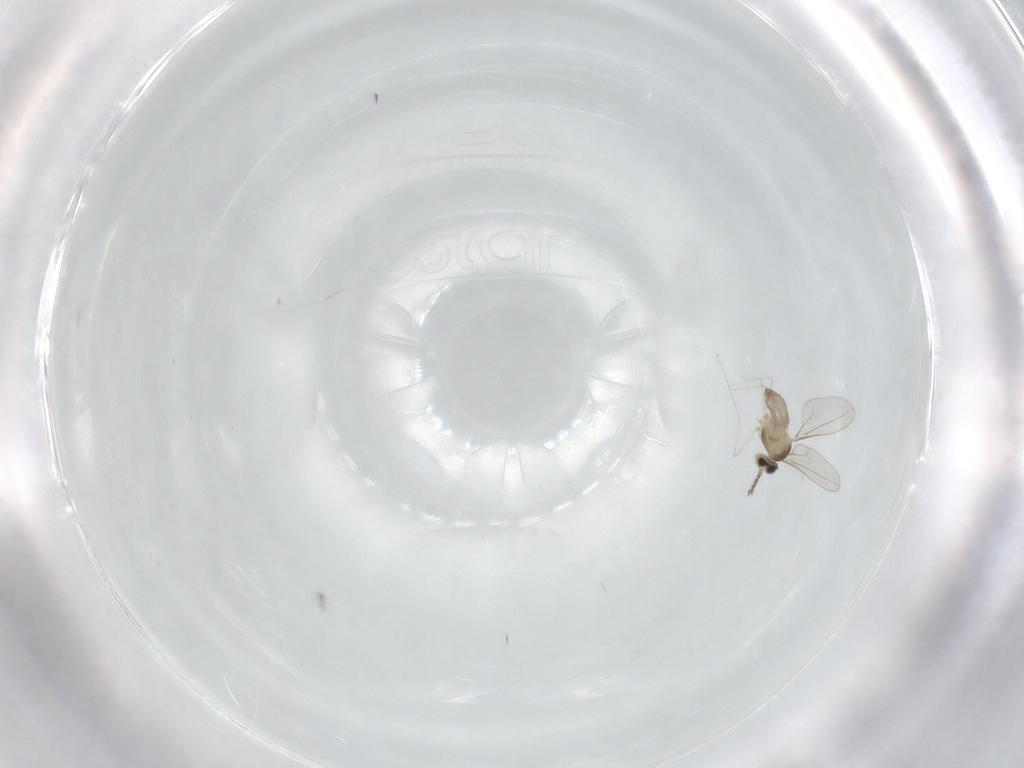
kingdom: Animalia
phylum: Arthropoda
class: Insecta
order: Diptera
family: Cecidomyiidae
